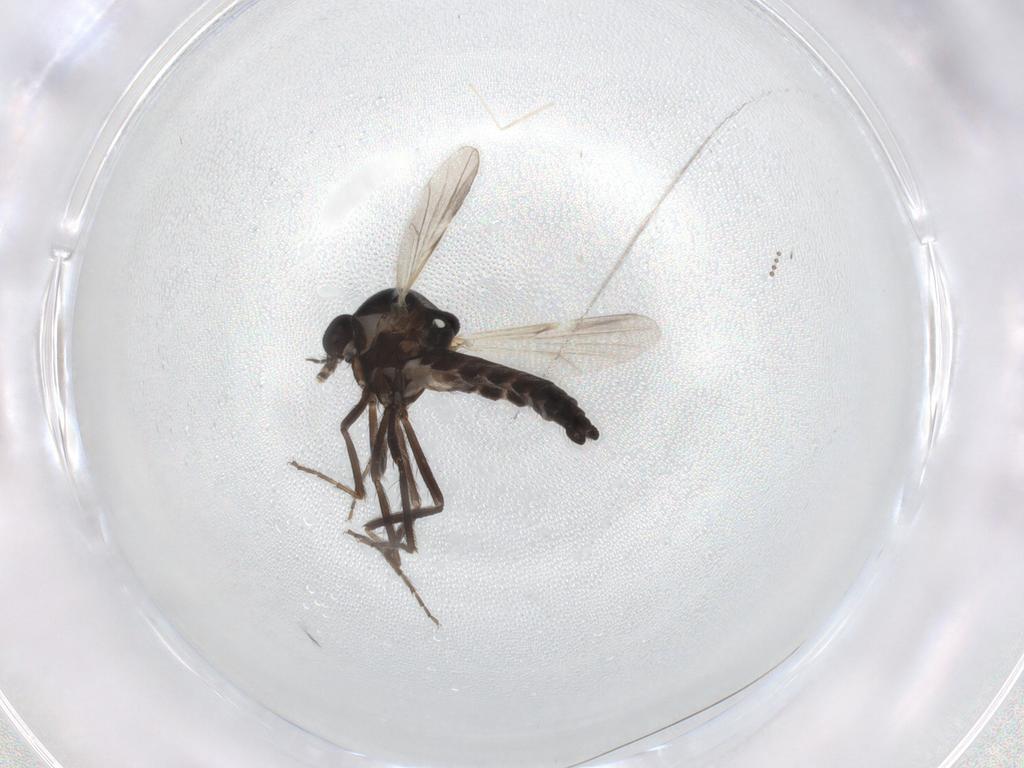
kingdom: Animalia
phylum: Arthropoda
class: Insecta
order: Diptera
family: Ceratopogonidae
